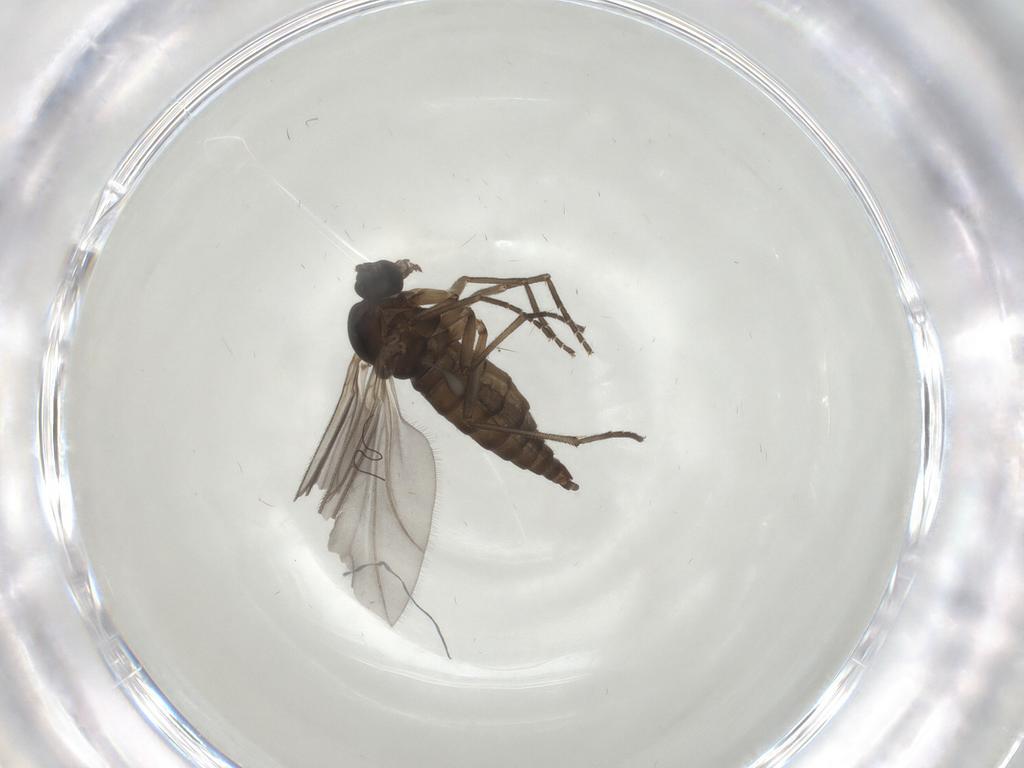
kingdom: Animalia
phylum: Arthropoda
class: Insecta
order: Diptera
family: Sciaridae
